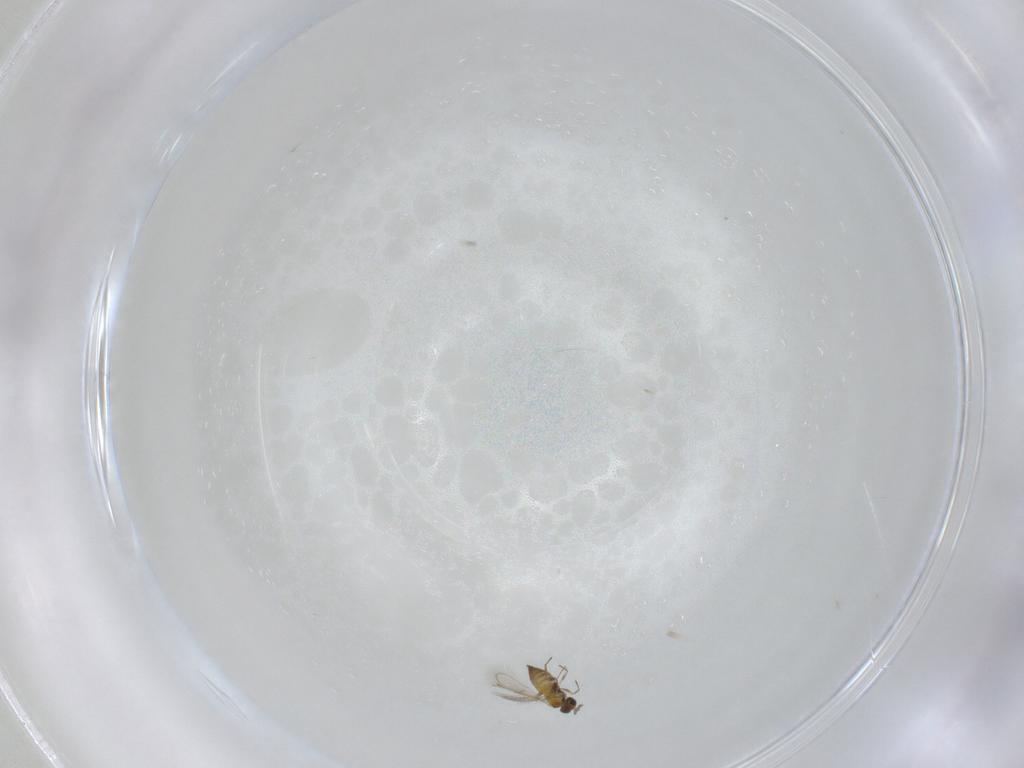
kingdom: Animalia
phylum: Arthropoda
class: Insecta
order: Hymenoptera
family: Trichogrammatidae
